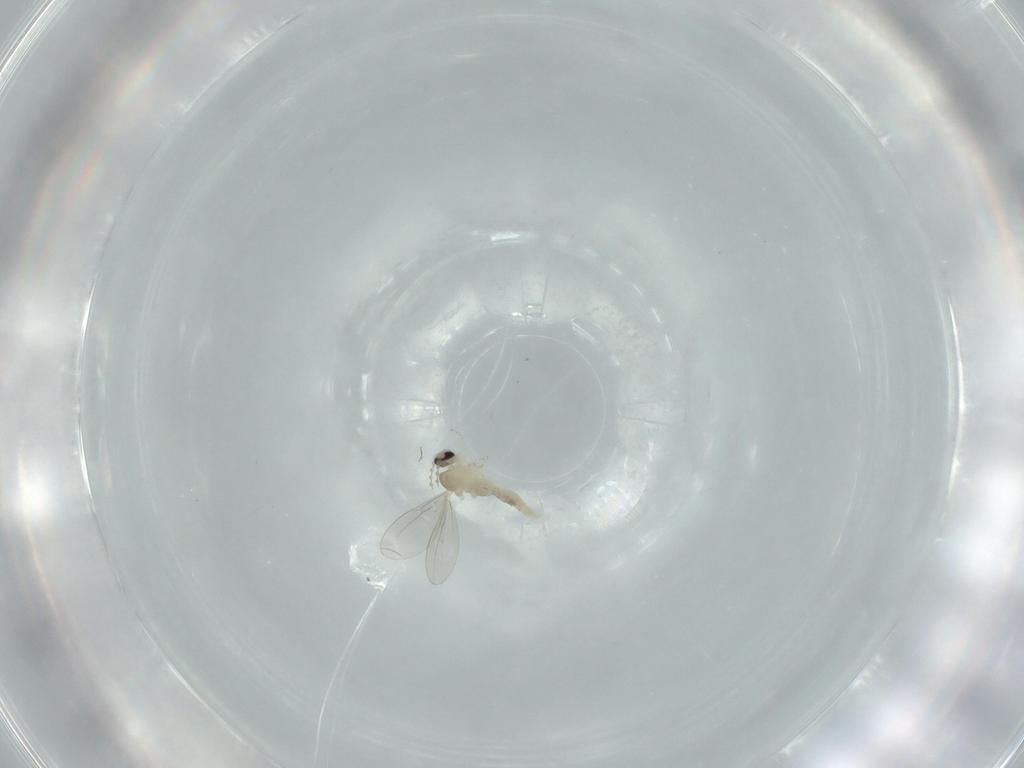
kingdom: Animalia
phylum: Arthropoda
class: Insecta
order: Diptera
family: Cecidomyiidae
